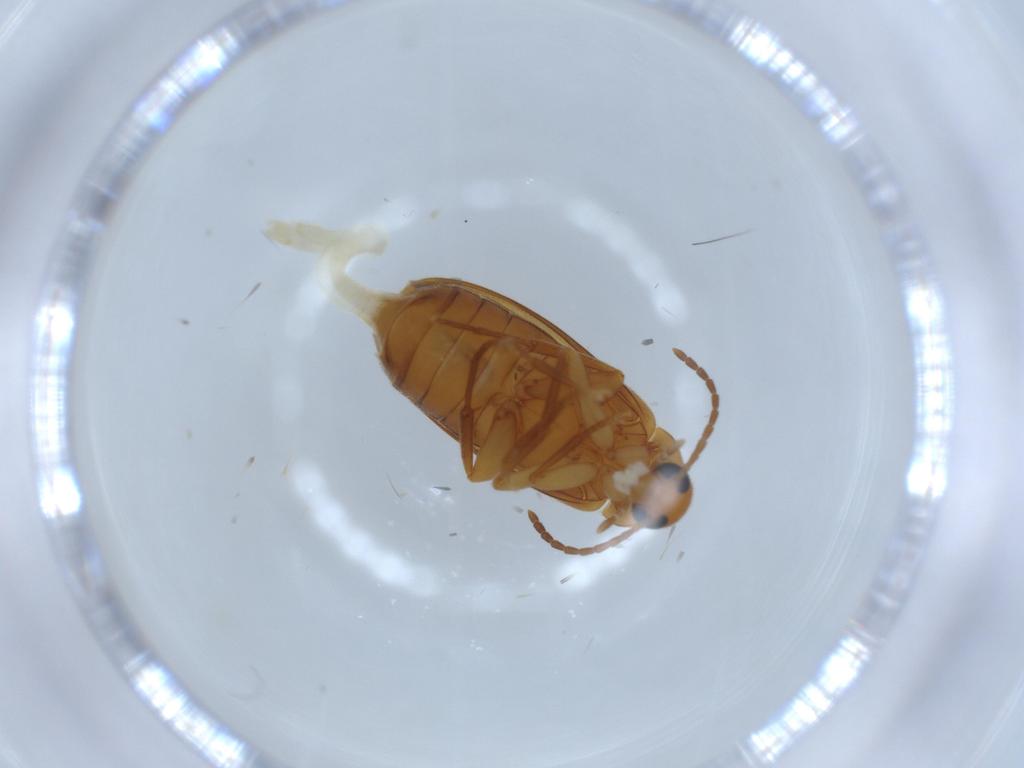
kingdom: Animalia
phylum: Arthropoda
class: Insecta
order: Coleoptera
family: Scraptiidae
